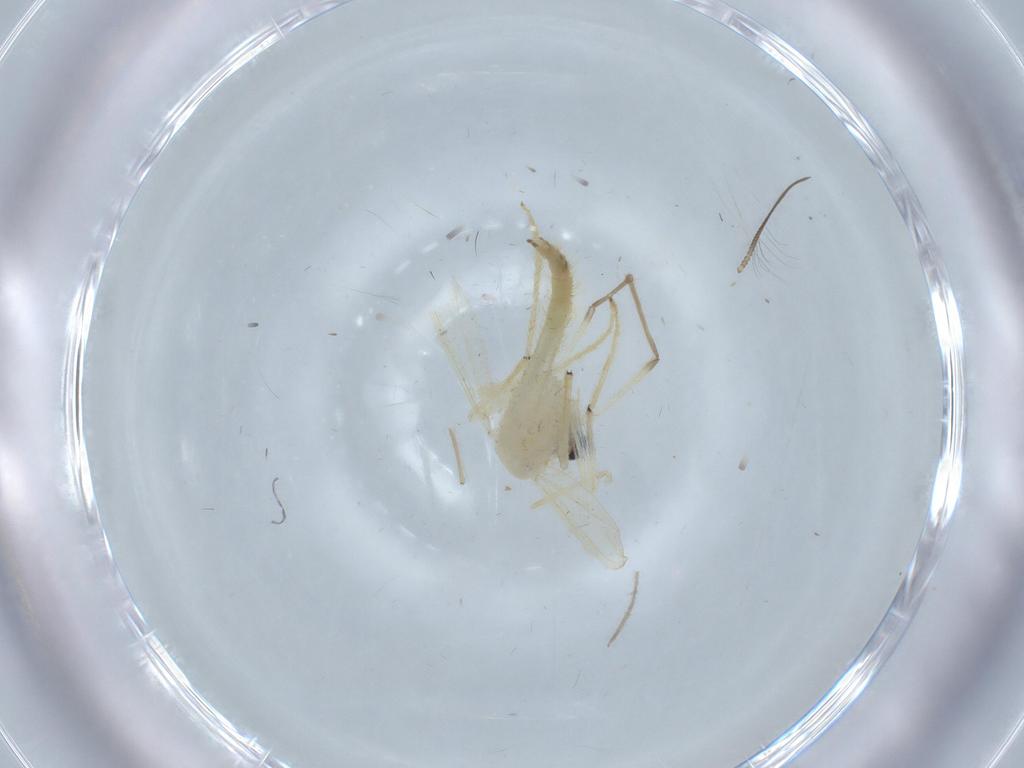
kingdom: Animalia
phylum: Arthropoda
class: Insecta
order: Diptera
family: Chironomidae
